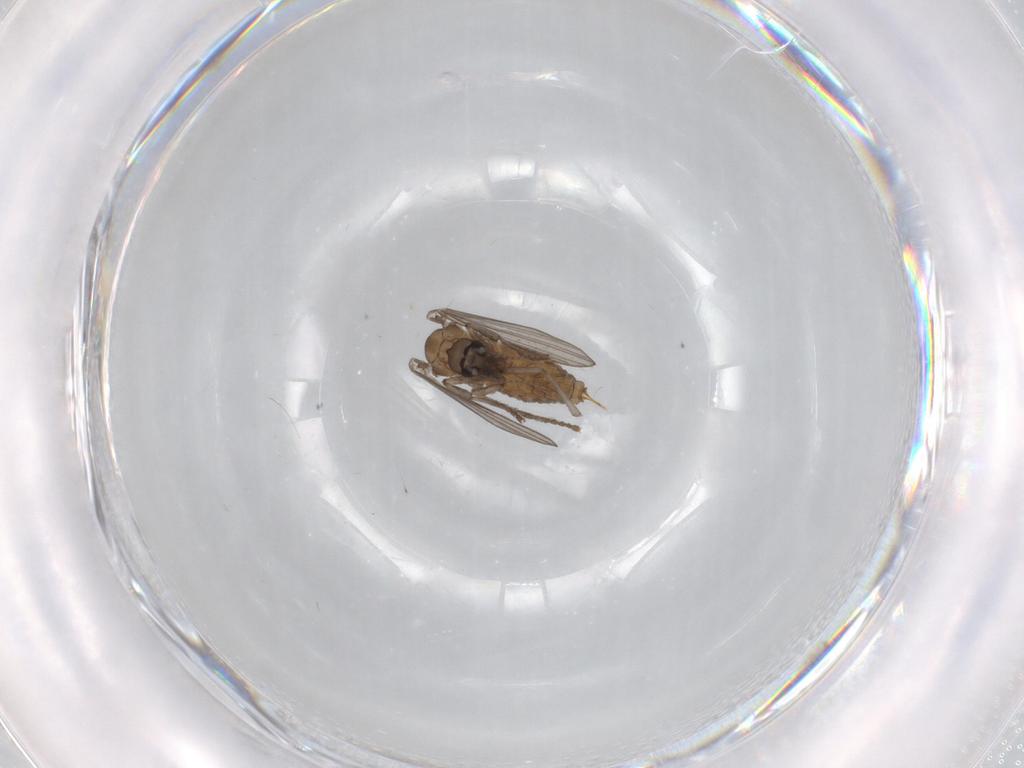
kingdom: Animalia
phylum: Arthropoda
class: Insecta
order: Diptera
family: Psychodidae
